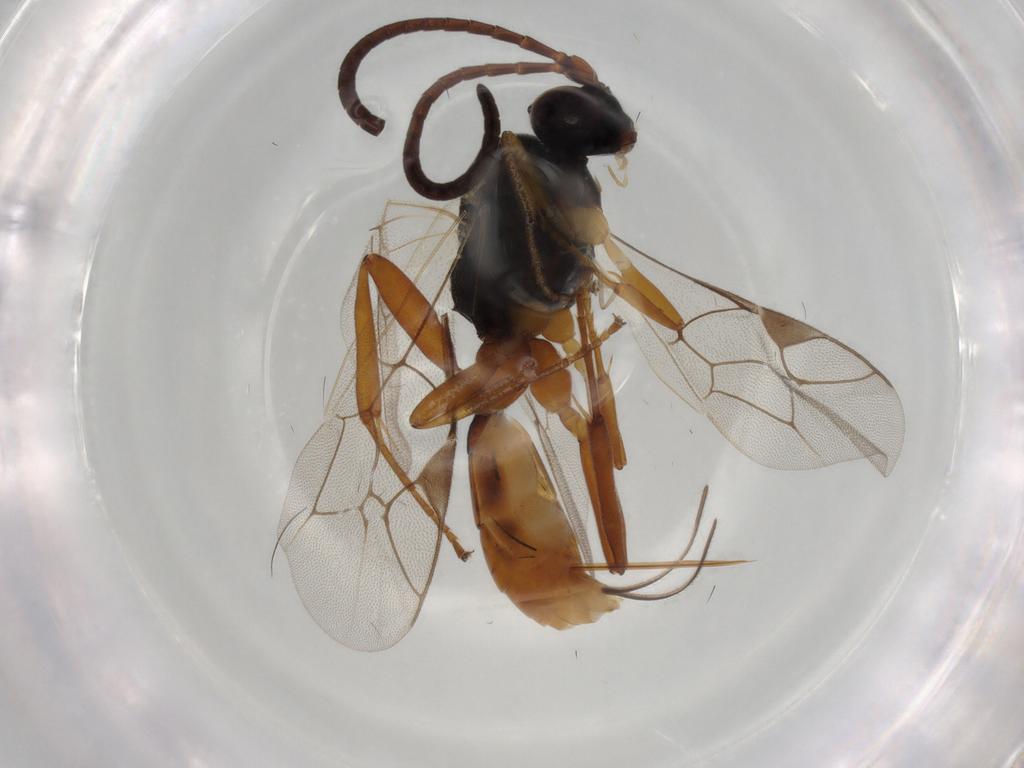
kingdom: Animalia
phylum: Arthropoda
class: Insecta
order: Hymenoptera
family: Ichneumonidae
